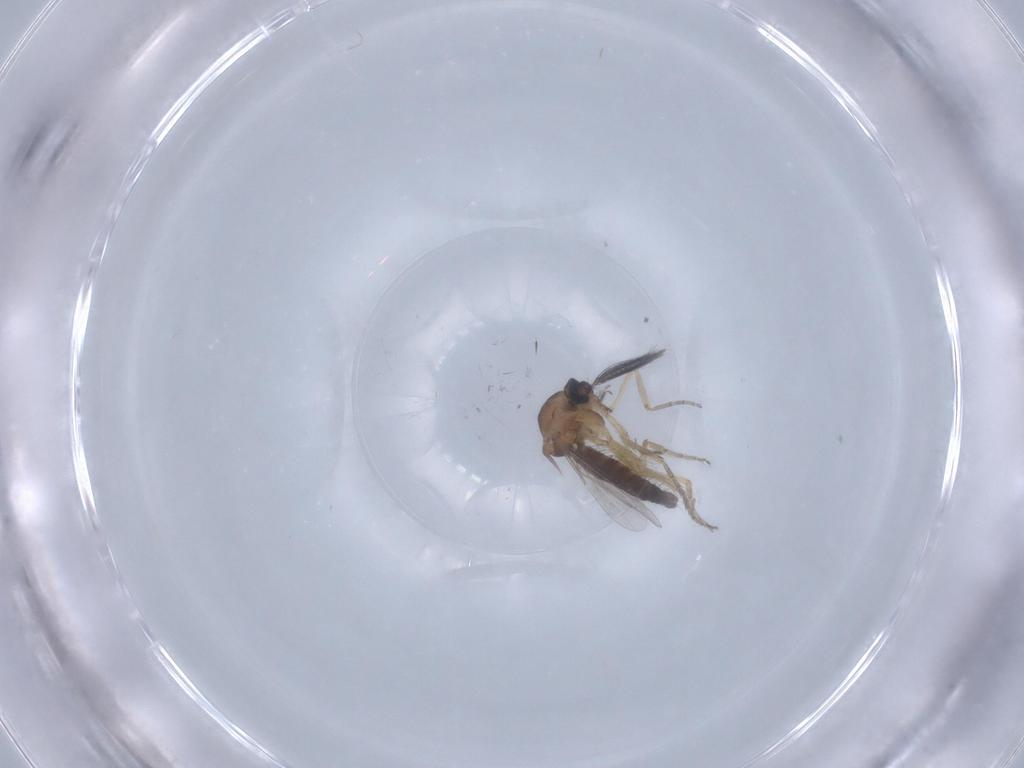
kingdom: Animalia
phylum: Arthropoda
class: Insecta
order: Diptera
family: Ceratopogonidae
